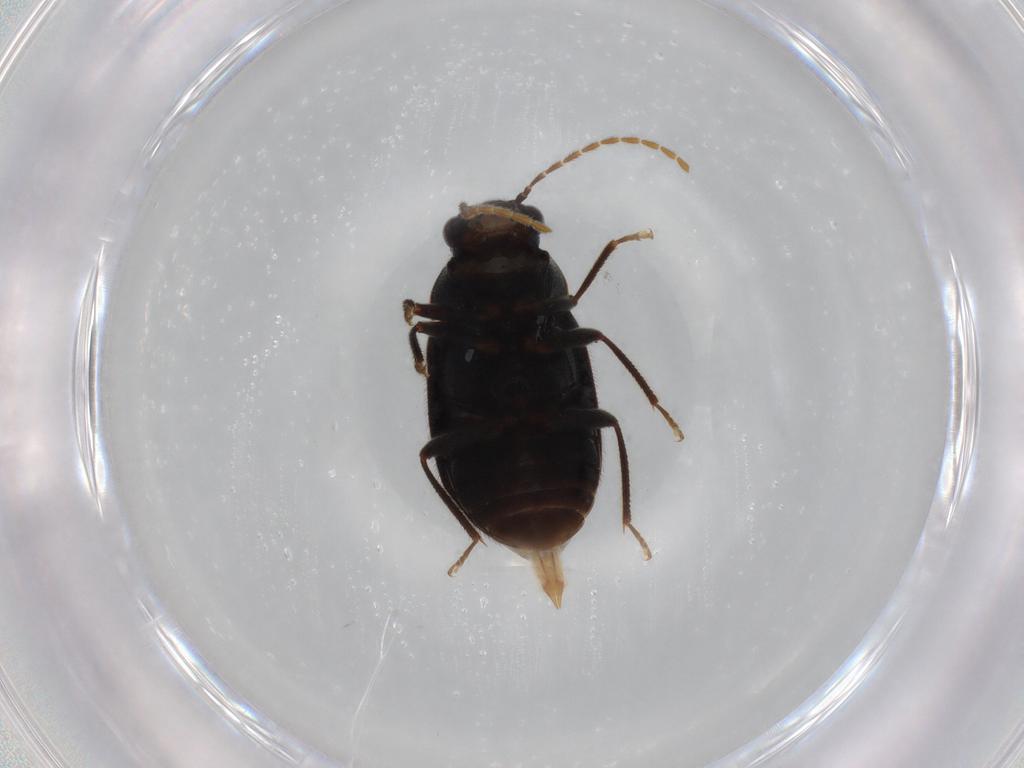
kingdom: Animalia
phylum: Arthropoda
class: Insecta
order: Coleoptera
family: Ptilodactylidae
